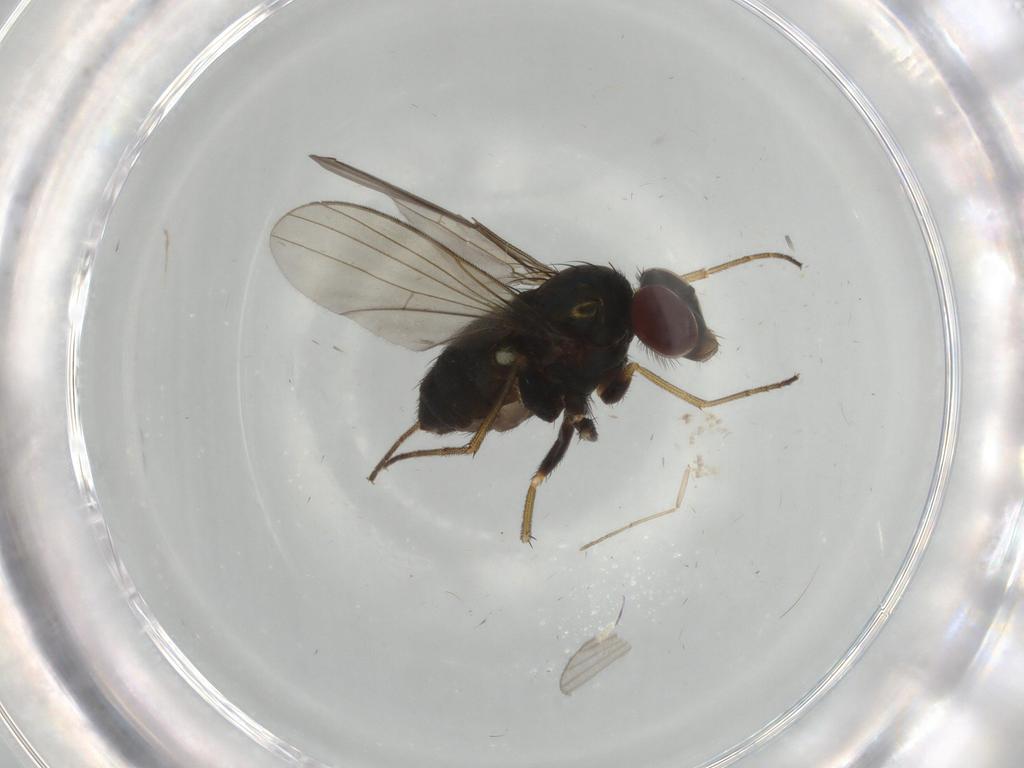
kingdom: Animalia
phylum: Arthropoda
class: Insecta
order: Diptera
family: Dolichopodidae
